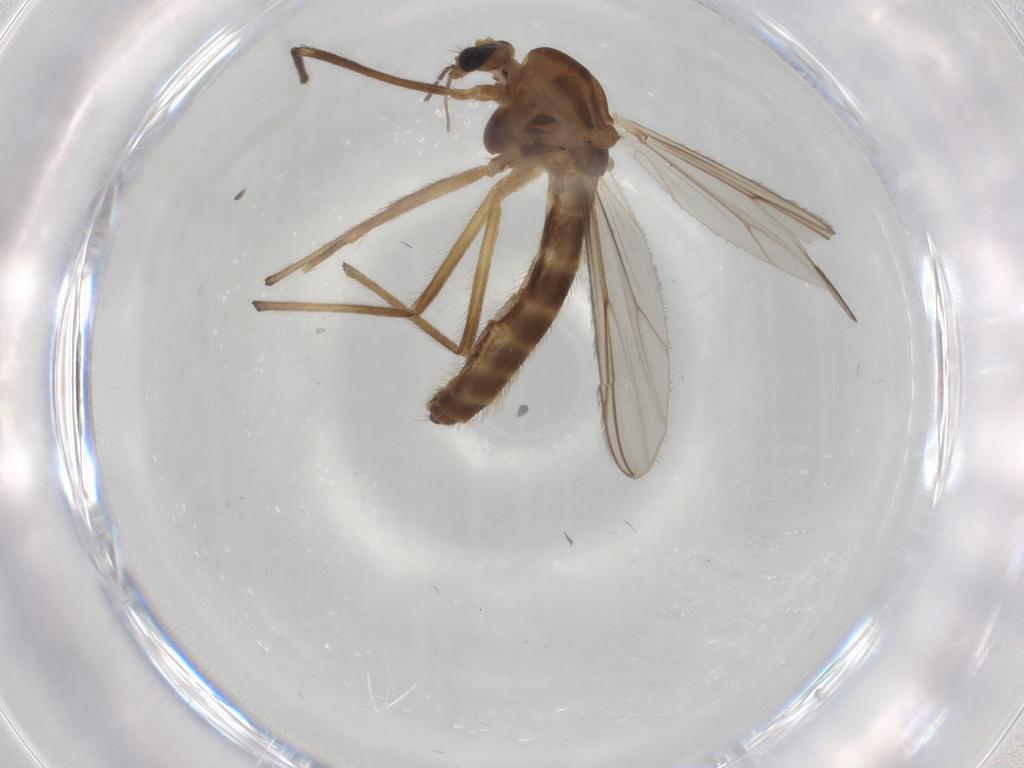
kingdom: Animalia
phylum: Arthropoda
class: Insecta
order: Diptera
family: Chironomidae
